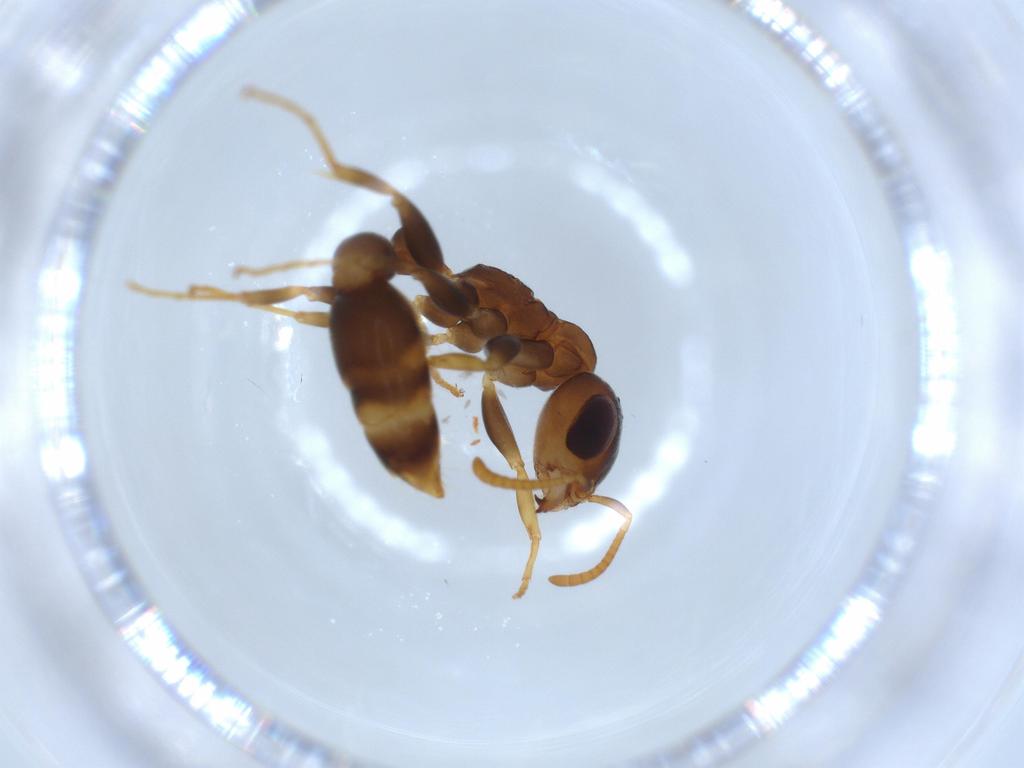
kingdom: Animalia
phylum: Arthropoda
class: Insecta
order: Hymenoptera
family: Formicidae
